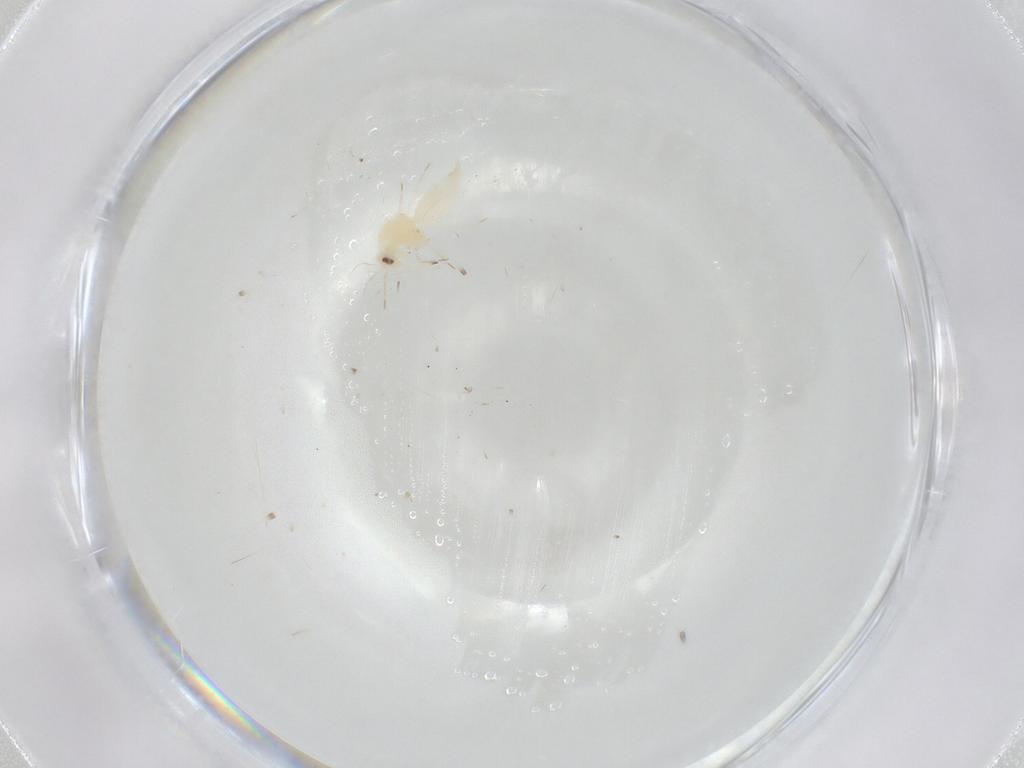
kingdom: Animalia
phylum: Arthropoda
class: Insecta
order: Hemiptera
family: Aleyrodidae
